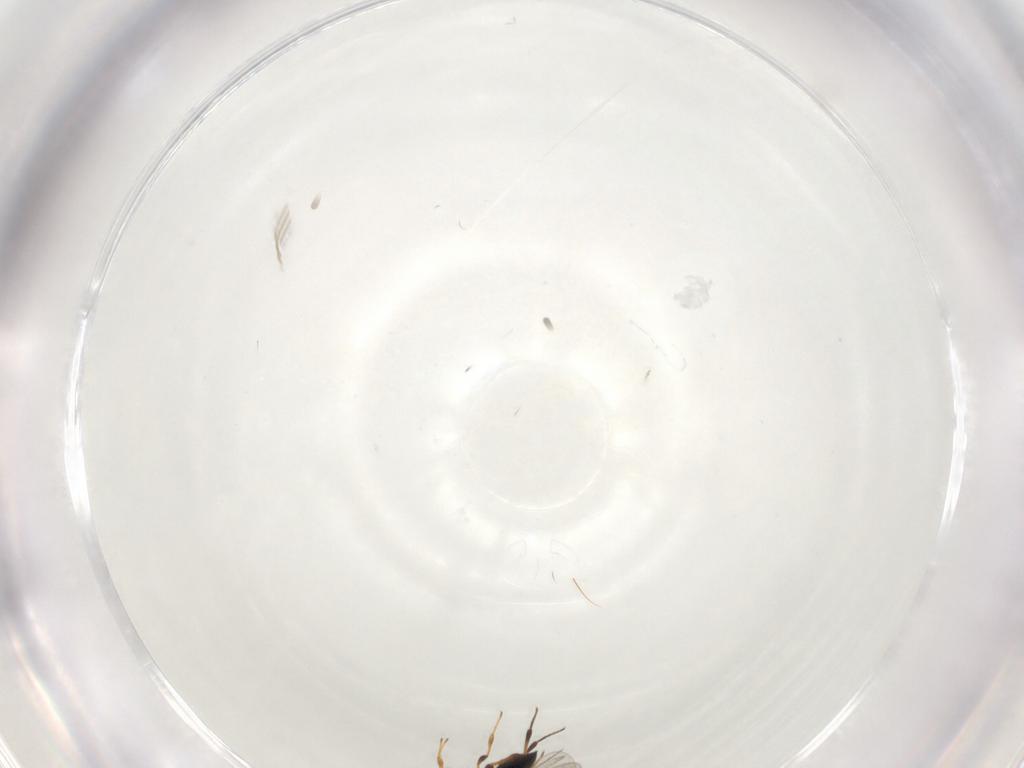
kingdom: Animalia
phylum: Arthropoda
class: Insecta
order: Hymenoptera
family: Platygastridae
